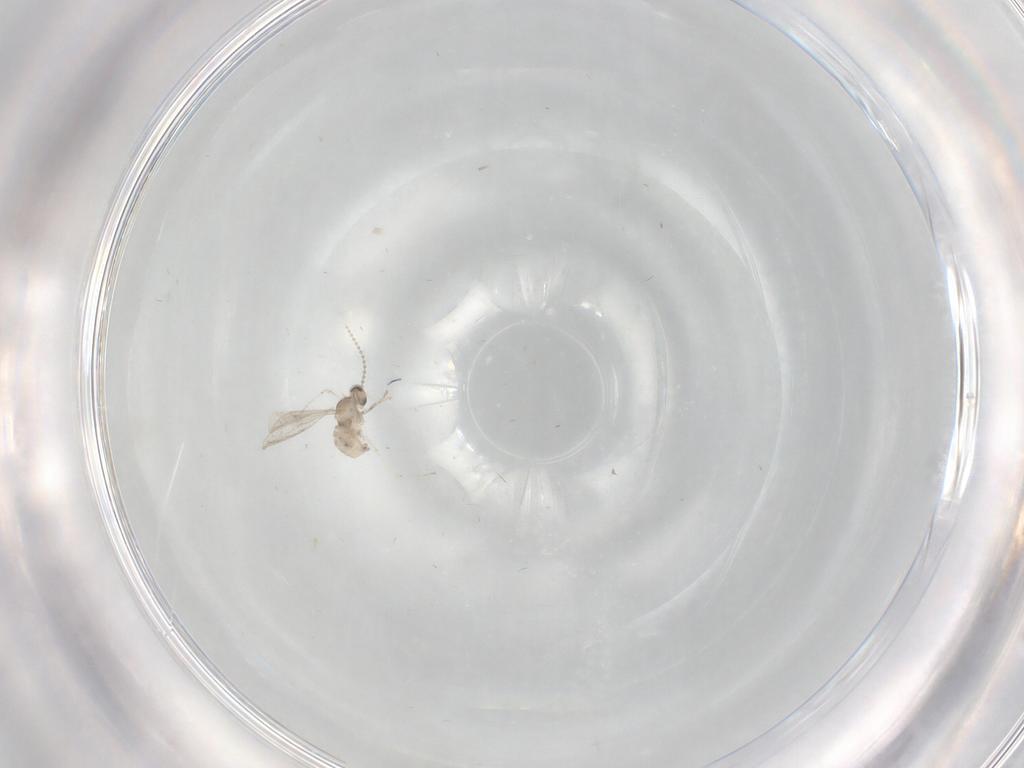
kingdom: Animalia
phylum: Arthropoda
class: Insecta
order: Diptera
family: Cecidomyiidae
